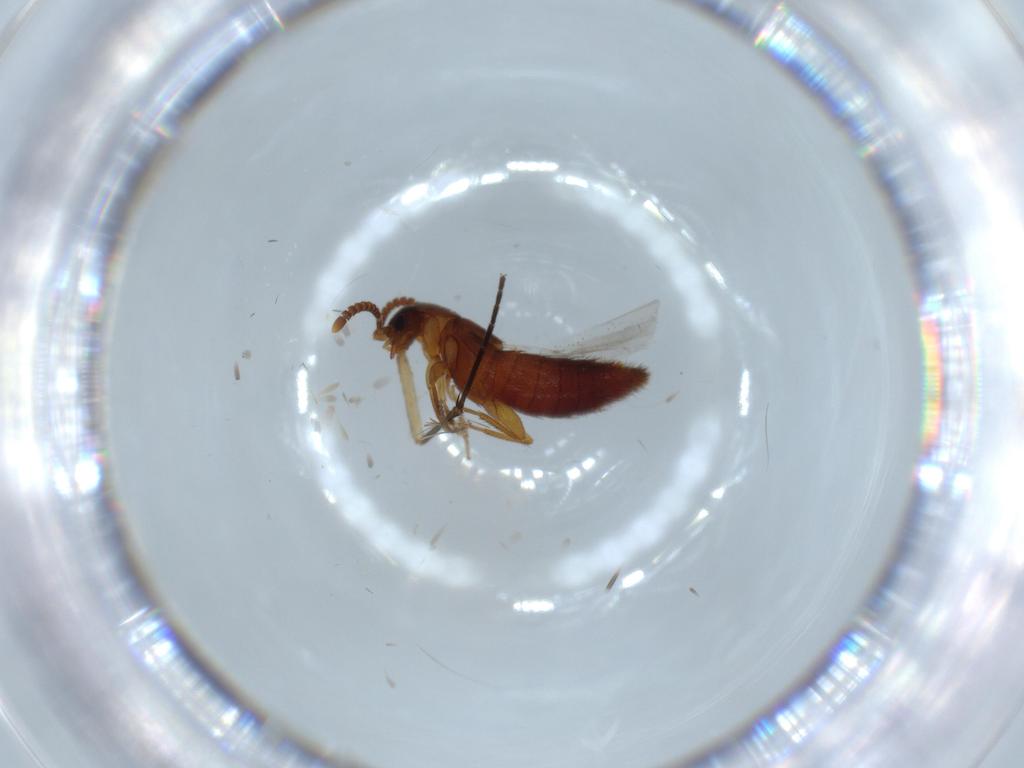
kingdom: Animalia
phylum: Arthropoda
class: Insecta
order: Coleoptera
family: Staphylinidae
